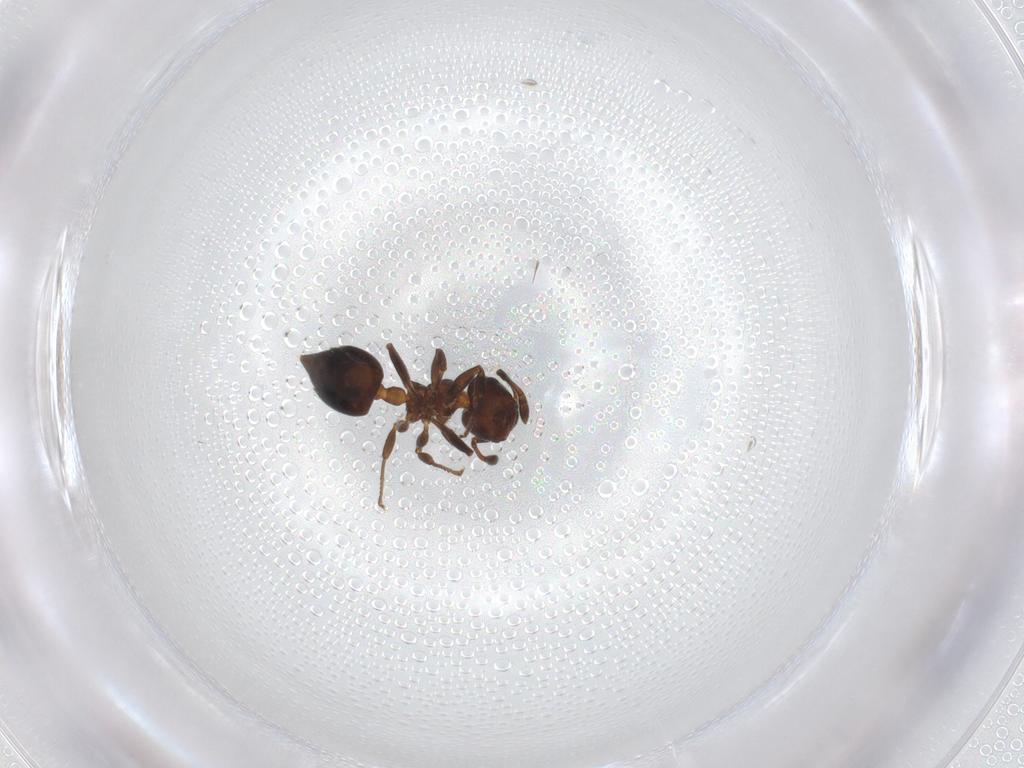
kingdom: Animalia
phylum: Arthropoda
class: Insecta
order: Hymenoptera
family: Formicidae
